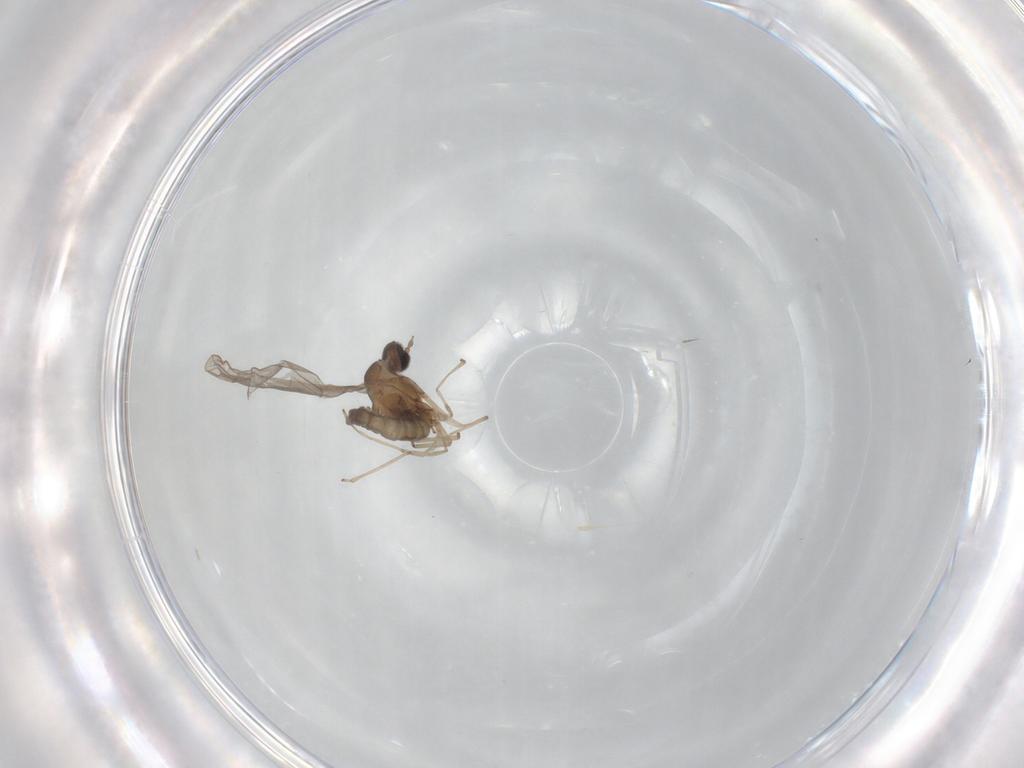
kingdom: Animalia
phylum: Arthropoda
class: Insecta
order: Diptera
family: Cecidomyiidae
